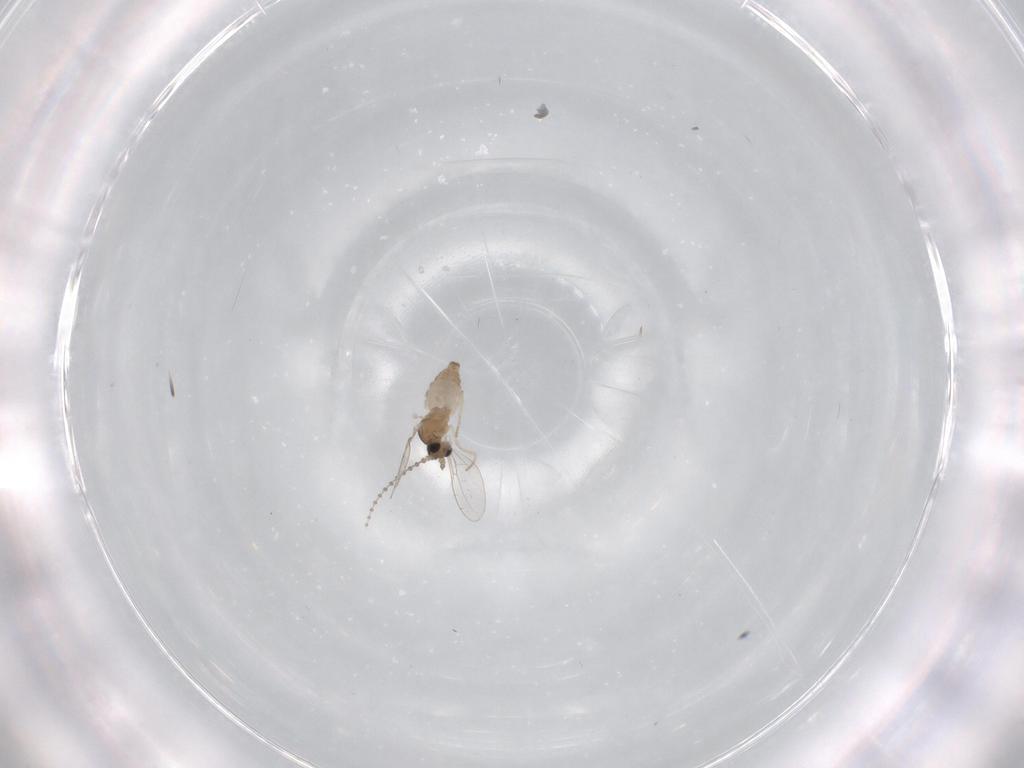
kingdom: Animalia
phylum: Arthropoda
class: Insecta
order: Diptera
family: Cecidomyiidae
